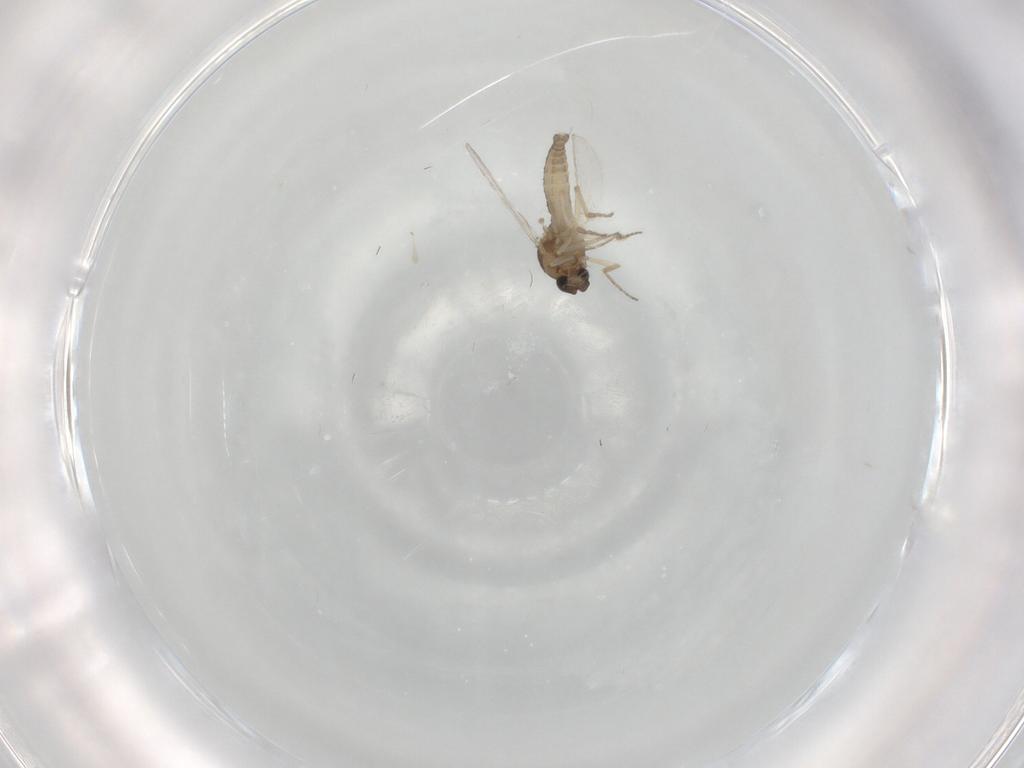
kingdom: Animalia
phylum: Arthropoda
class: Insecta
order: Diptera
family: Ceratopogonidae
